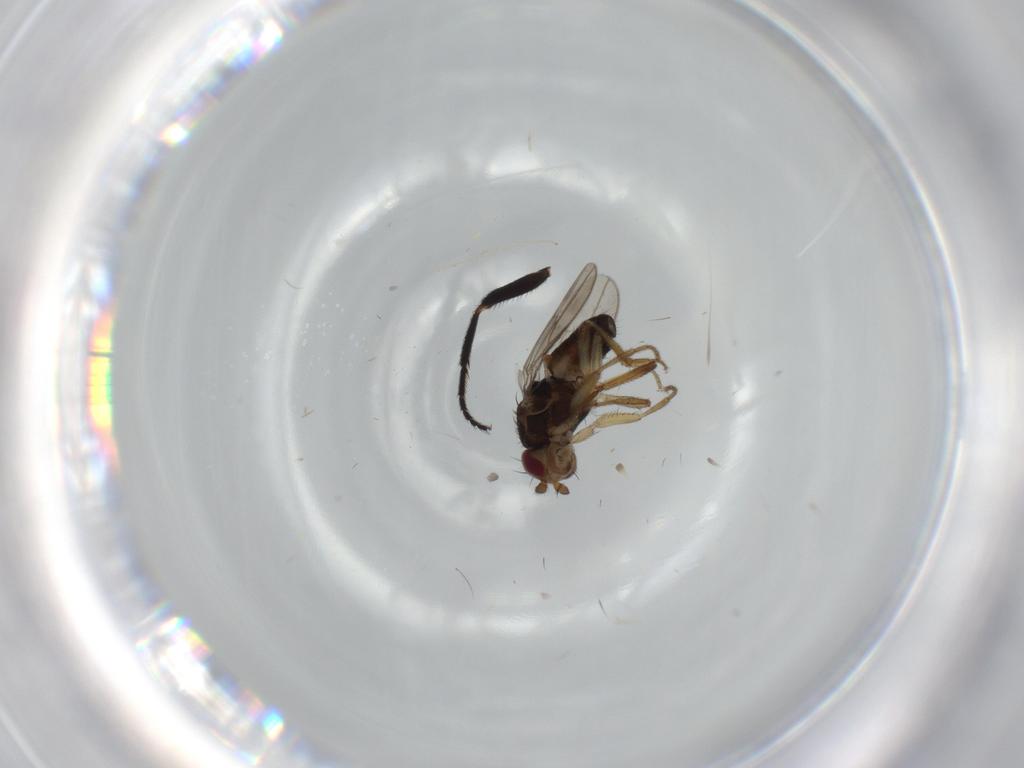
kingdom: Animalia
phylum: Arthropoda
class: Insecta
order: Diptera
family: Sphaeroceridae
